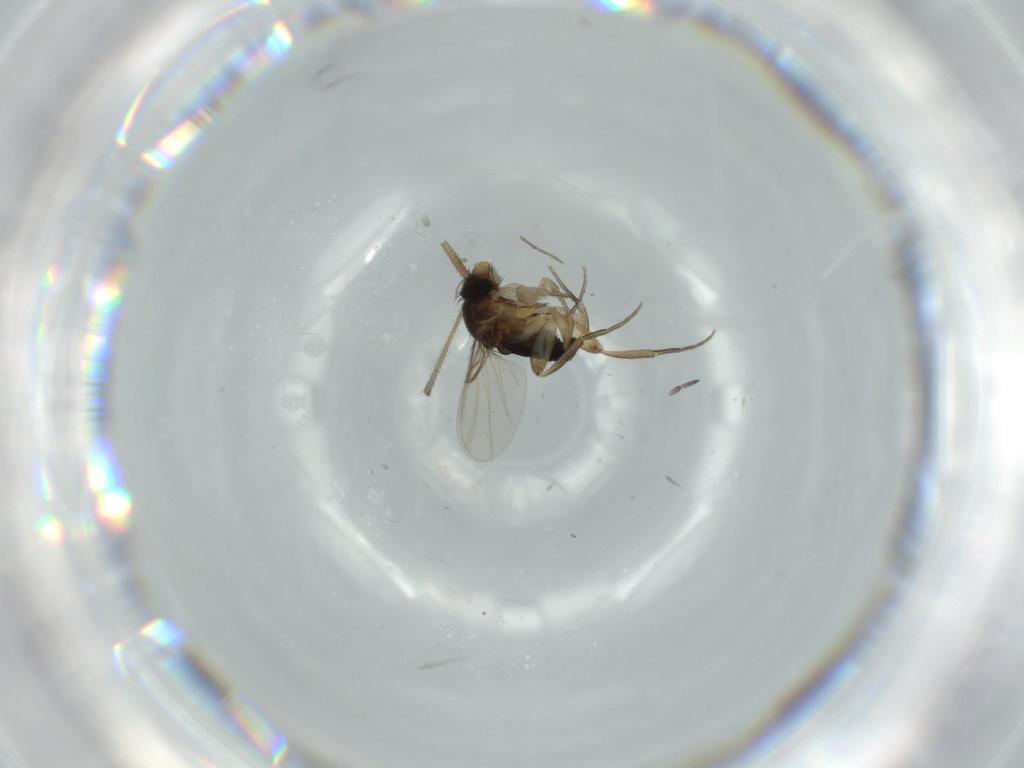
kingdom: Animalia
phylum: Arthropoda
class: Insecta
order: Diptera
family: Phoridae
